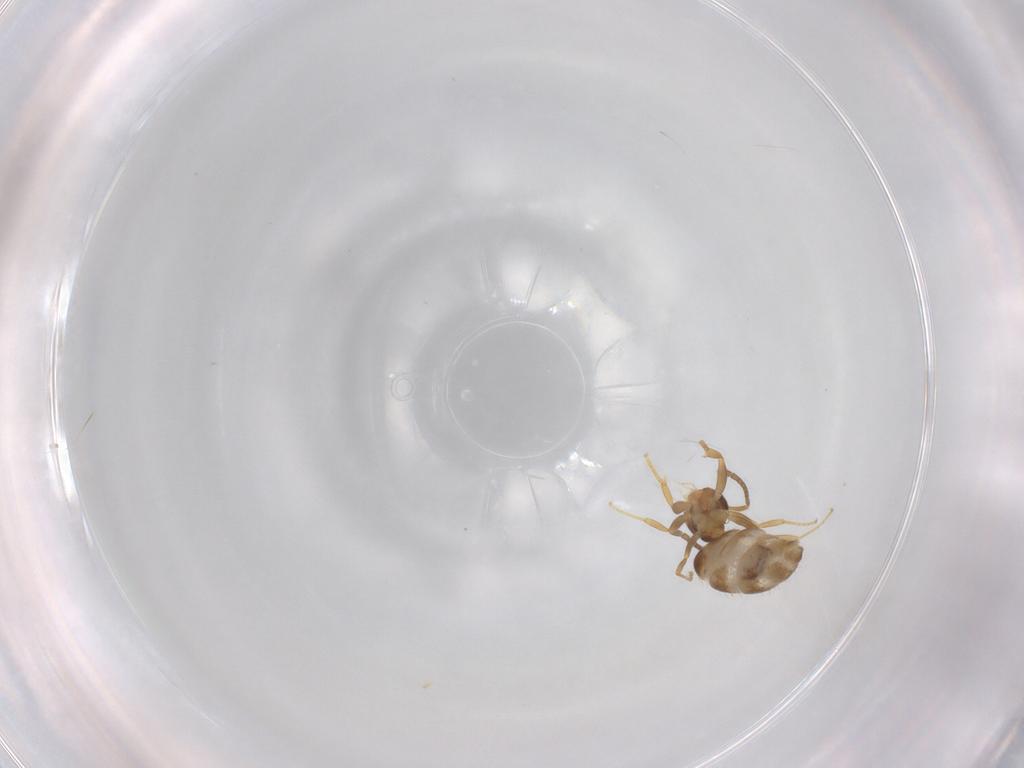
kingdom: Animalia
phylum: Arthropoda
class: Insecta
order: Hymenoptera
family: Formicidae
